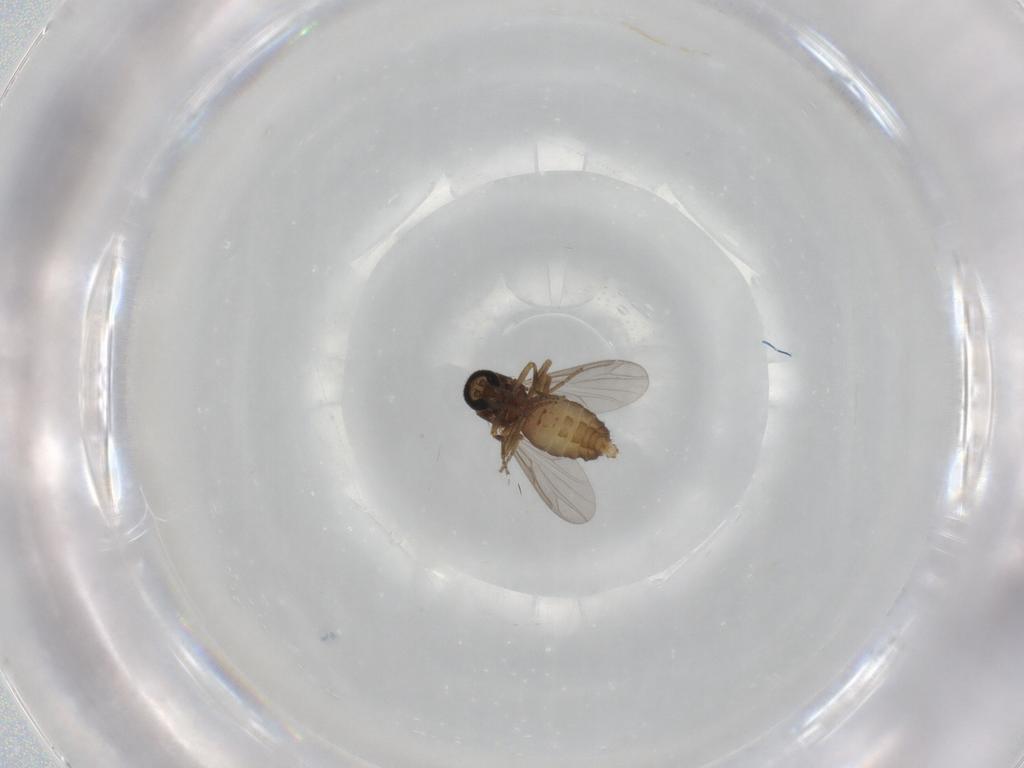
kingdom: Animalia
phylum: Arthropoda
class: Insecta
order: Diptera
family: Ceratopogonidae
